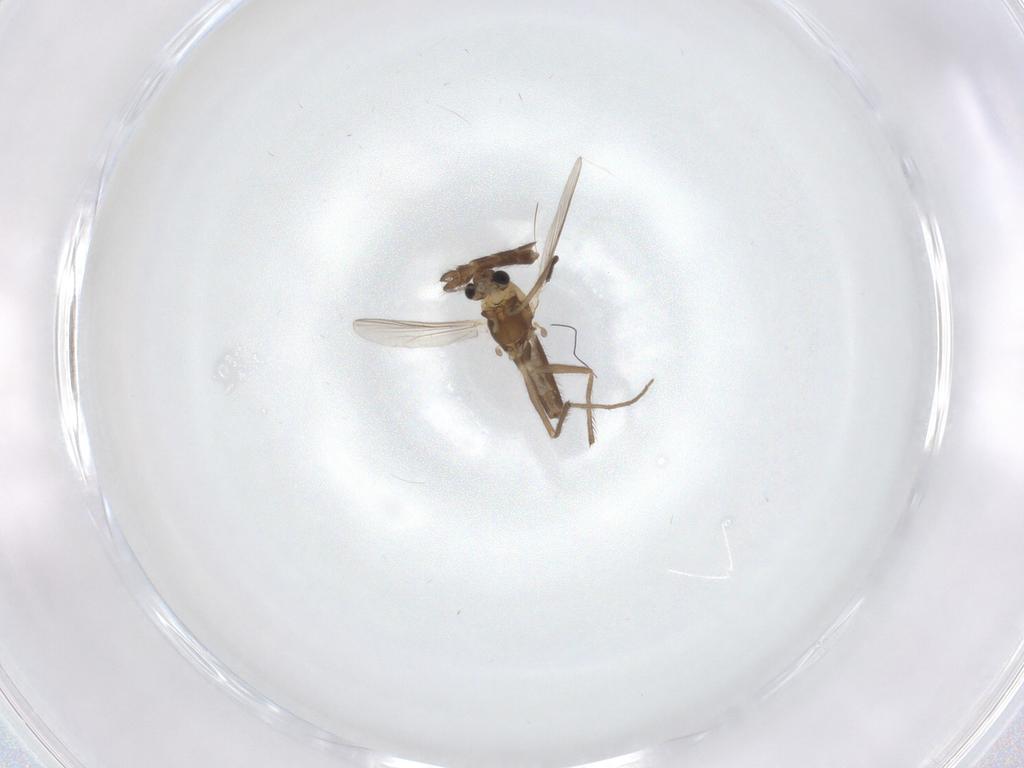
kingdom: Animalia
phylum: Arthropoda
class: Insecta
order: Diptera
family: Chironomidae
